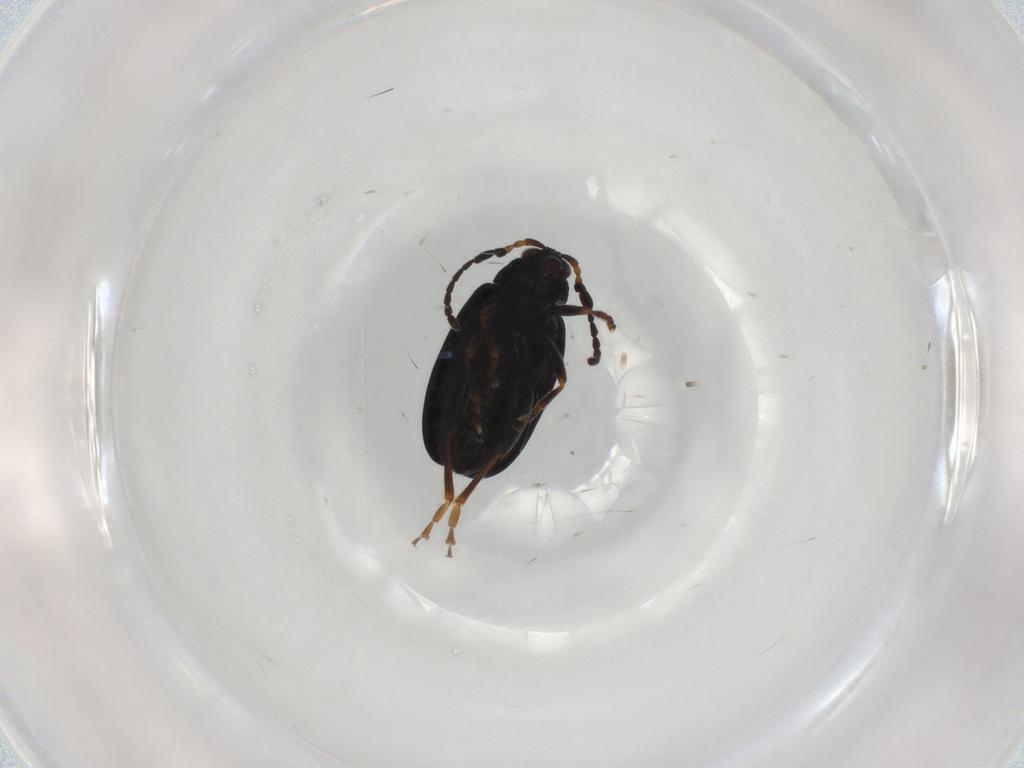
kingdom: Animalia
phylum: Arthropoda
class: Insecta
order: Coleoptera
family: Chrysomelidae
